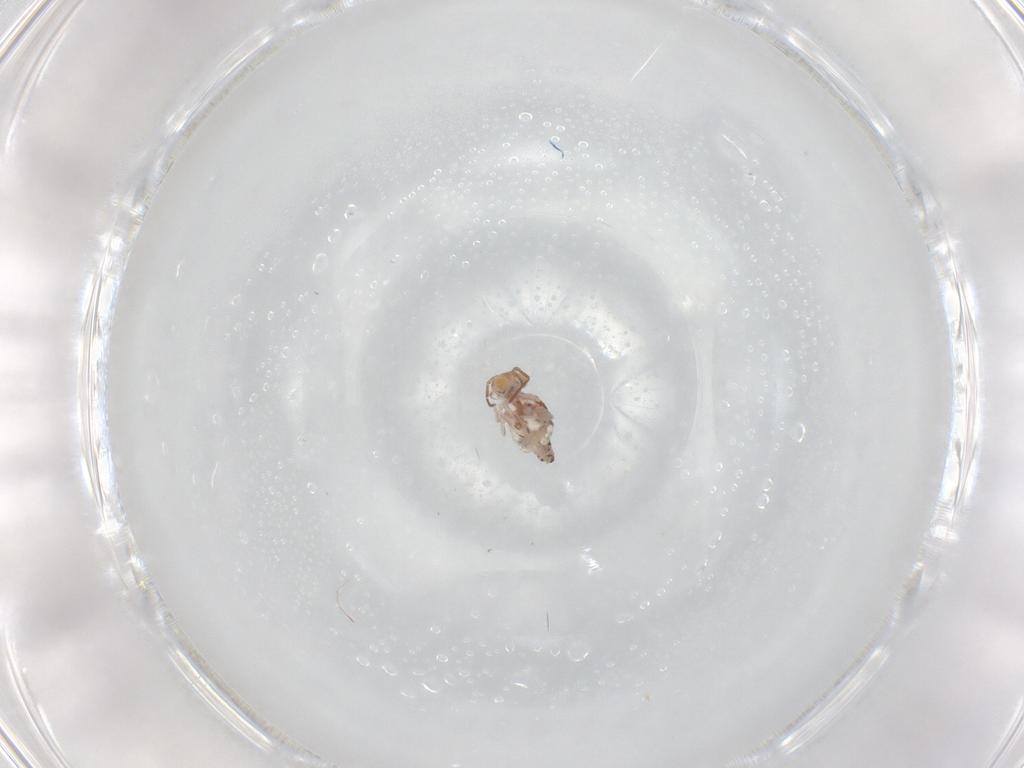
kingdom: Animalia
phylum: Arthropoda
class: Collembola
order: Symphypleona
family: Bourletiellidae
